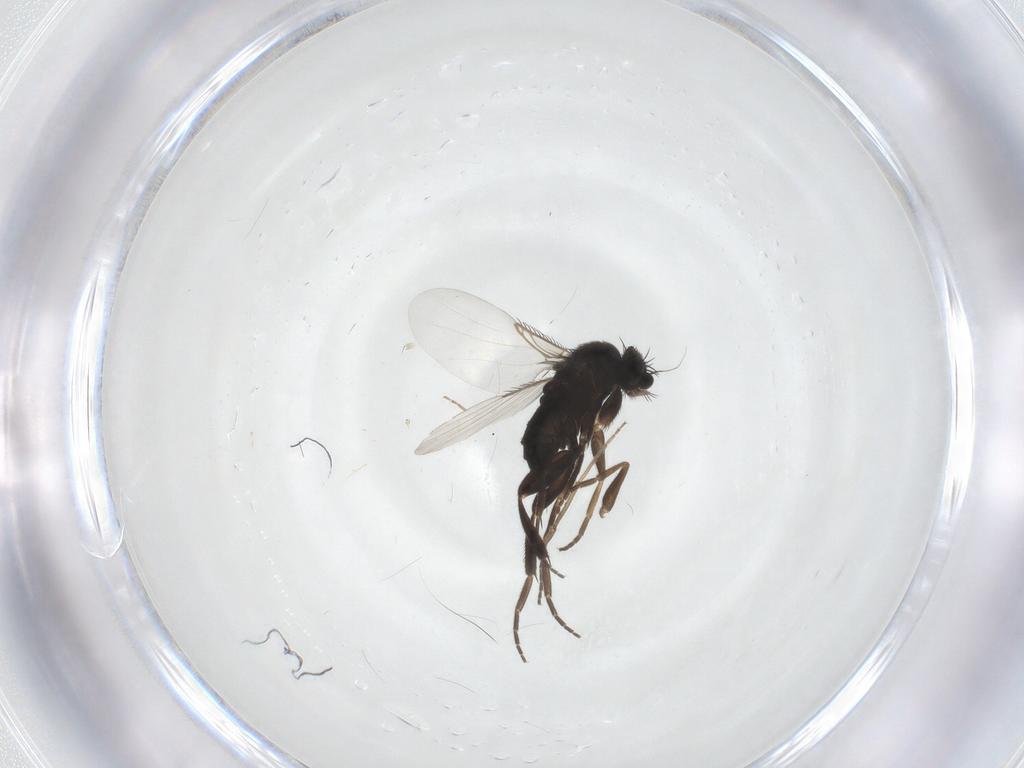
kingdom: Animalia
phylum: Arthropoda
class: Insecta
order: Diptera
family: Phoridae
